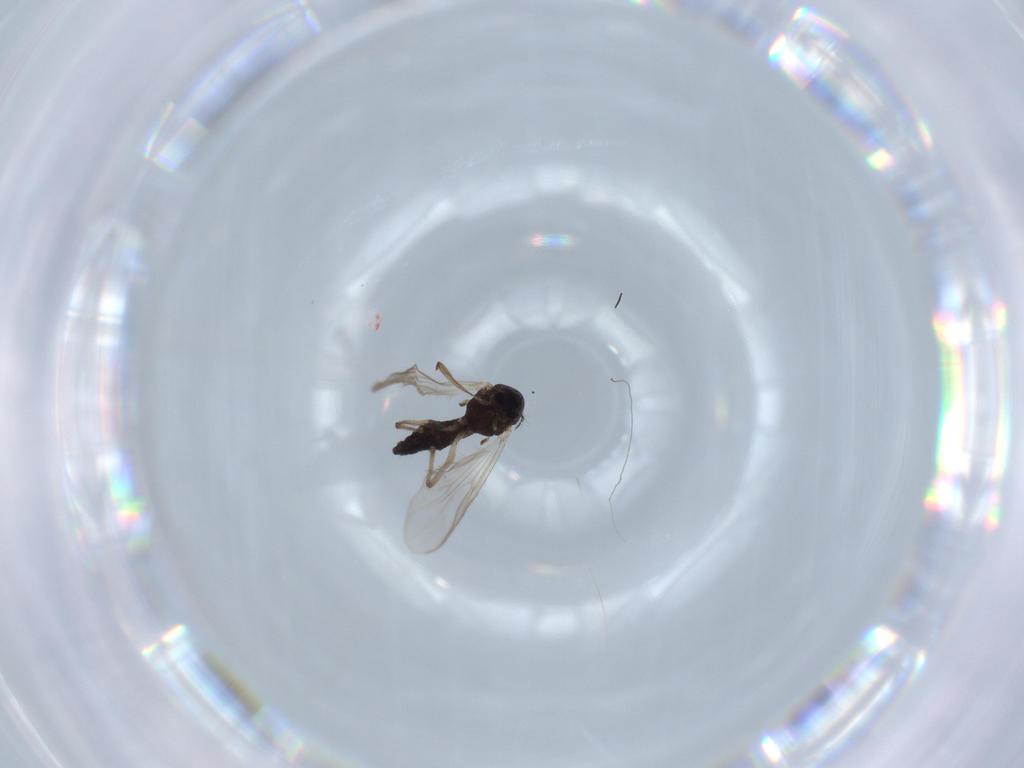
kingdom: Animalia
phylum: Arthropoda
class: Insecta
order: Diptera
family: Chironomidae
